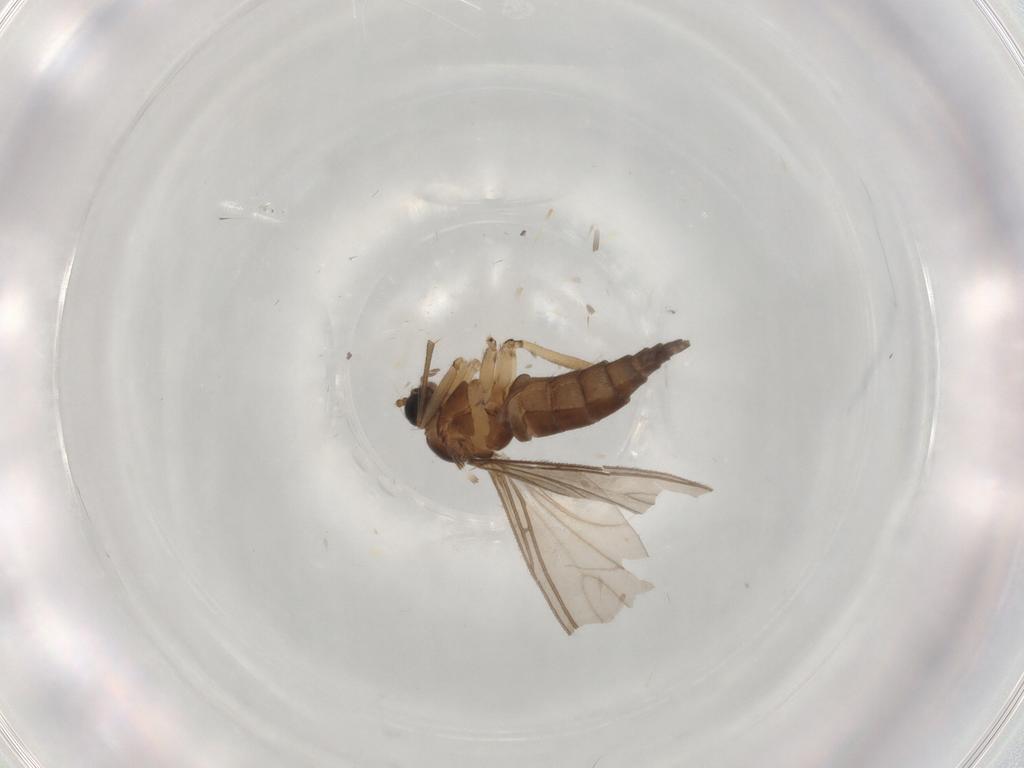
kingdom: Animalia
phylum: Arthropoda
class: Insecta
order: Diptera
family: Sciaridae
